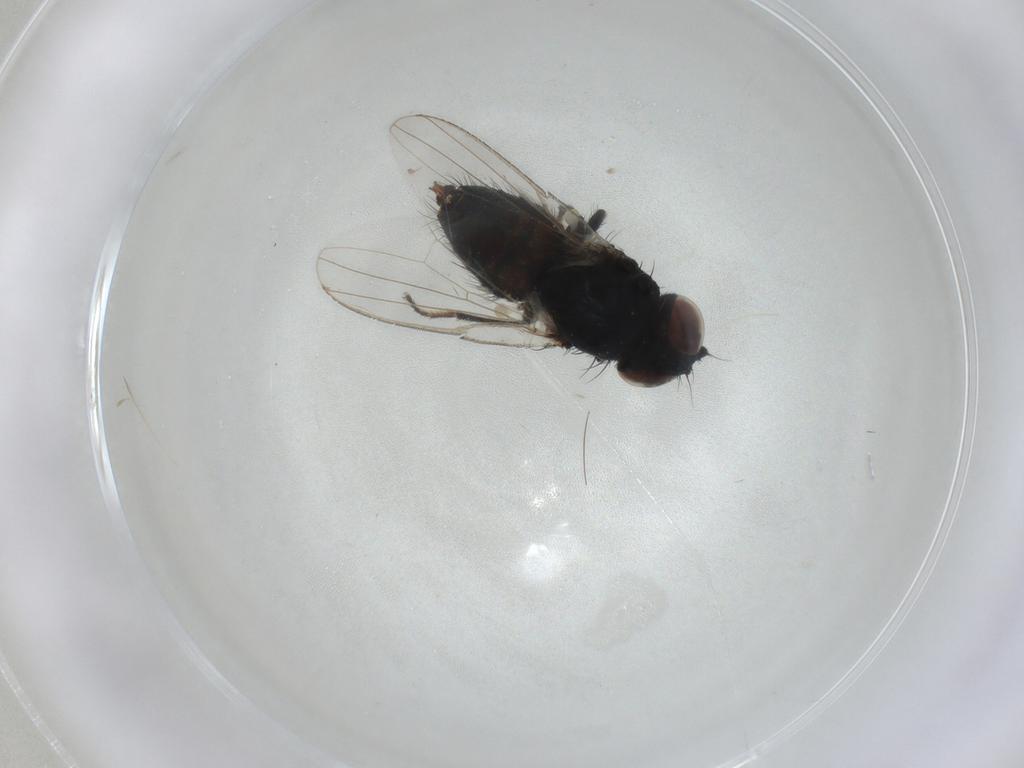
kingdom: Animalia
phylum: Arthropoda
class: Insecta
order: Diptera
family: Milichiidae
